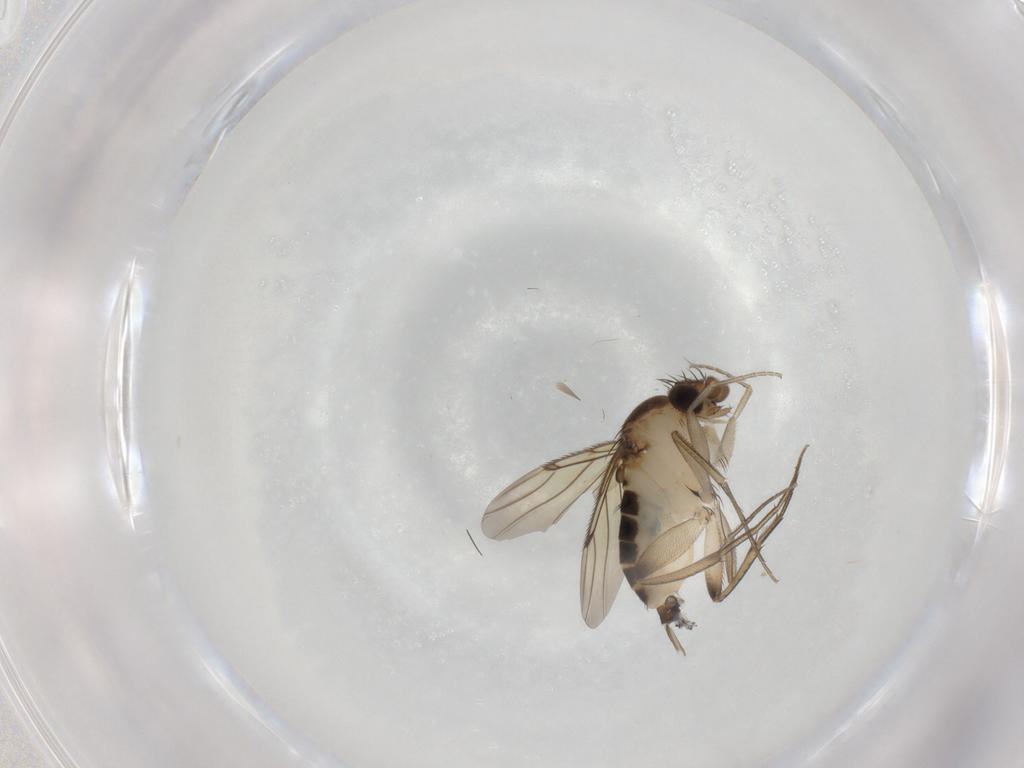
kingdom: Animalia
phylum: Arthropoda
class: Insecta
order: Diptera
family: Phoridae
